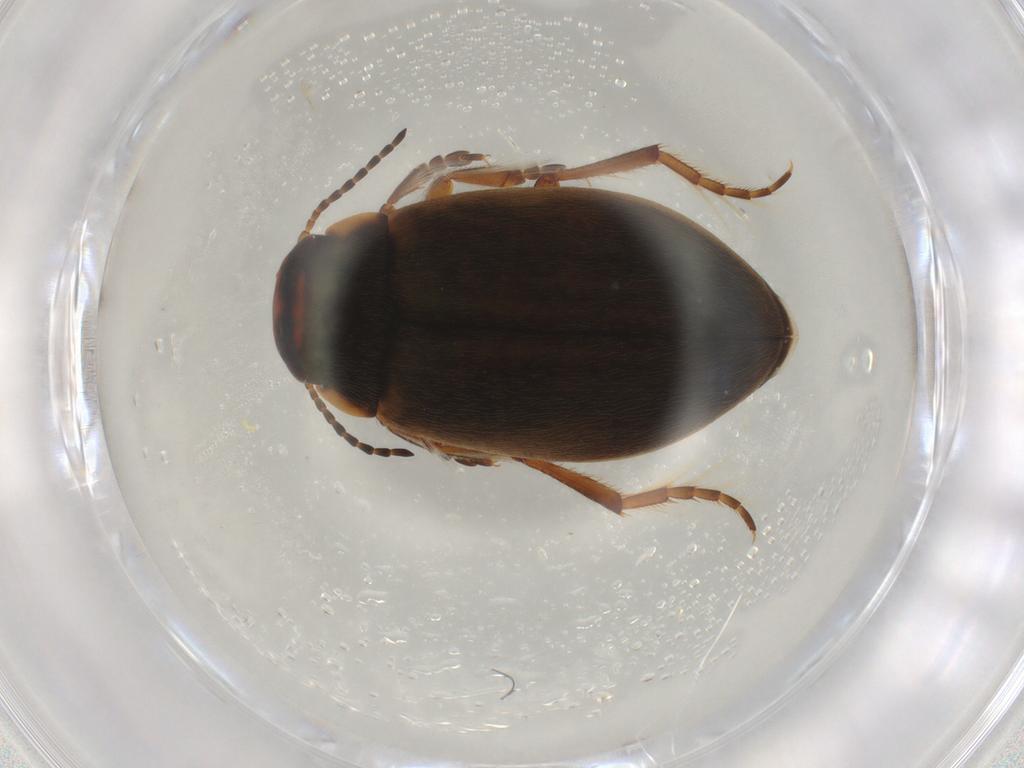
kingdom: Animalia
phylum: Arthropoda
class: Insecta
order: Coleoptera
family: Dytiscidae
